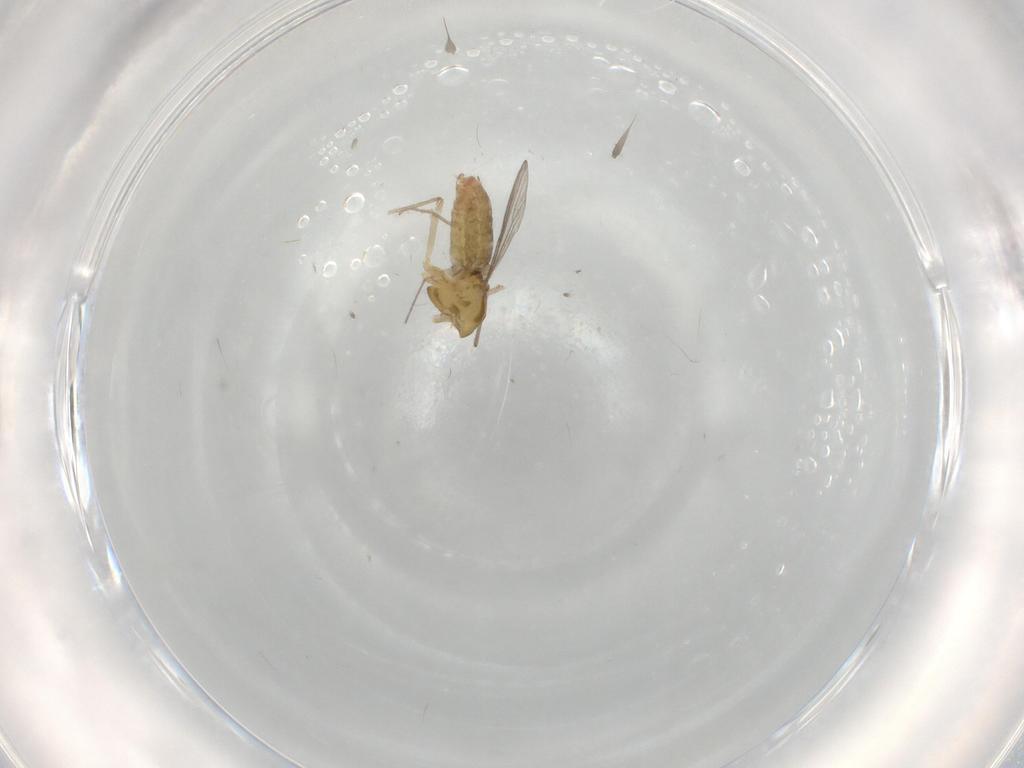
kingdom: Animalia
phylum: Arthropoda
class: Insecta
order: Diptera
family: Chironomidae
